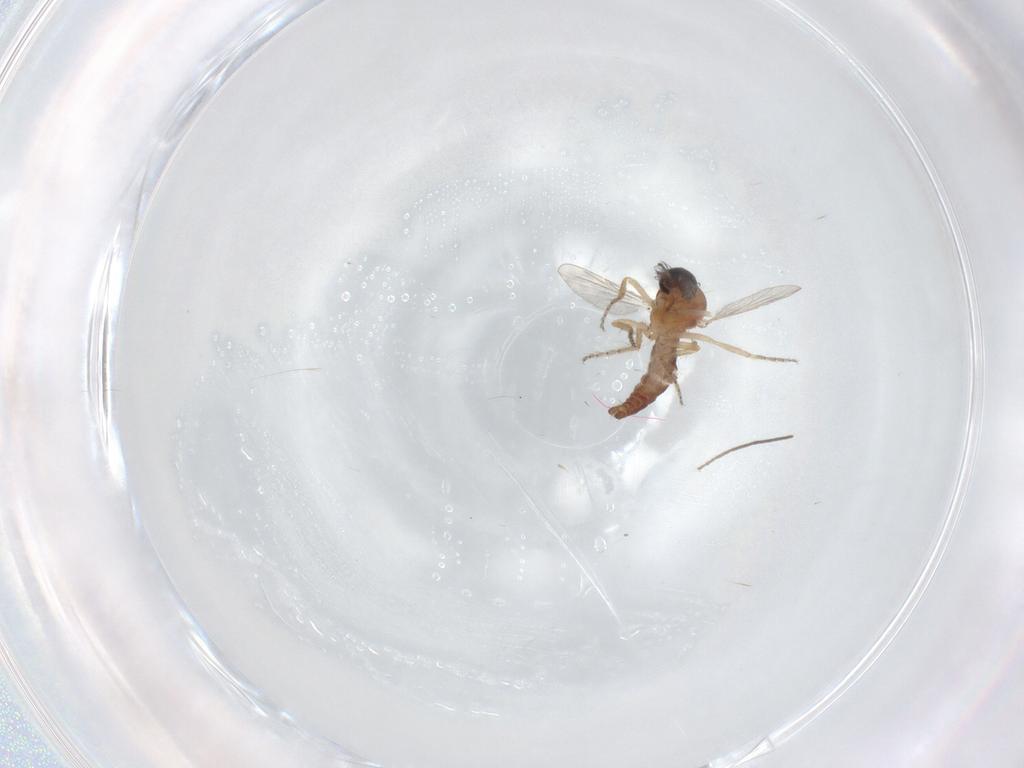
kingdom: Animalia
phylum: Arthropoda
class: Insecta
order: Diptera
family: Ceratopogonidae
